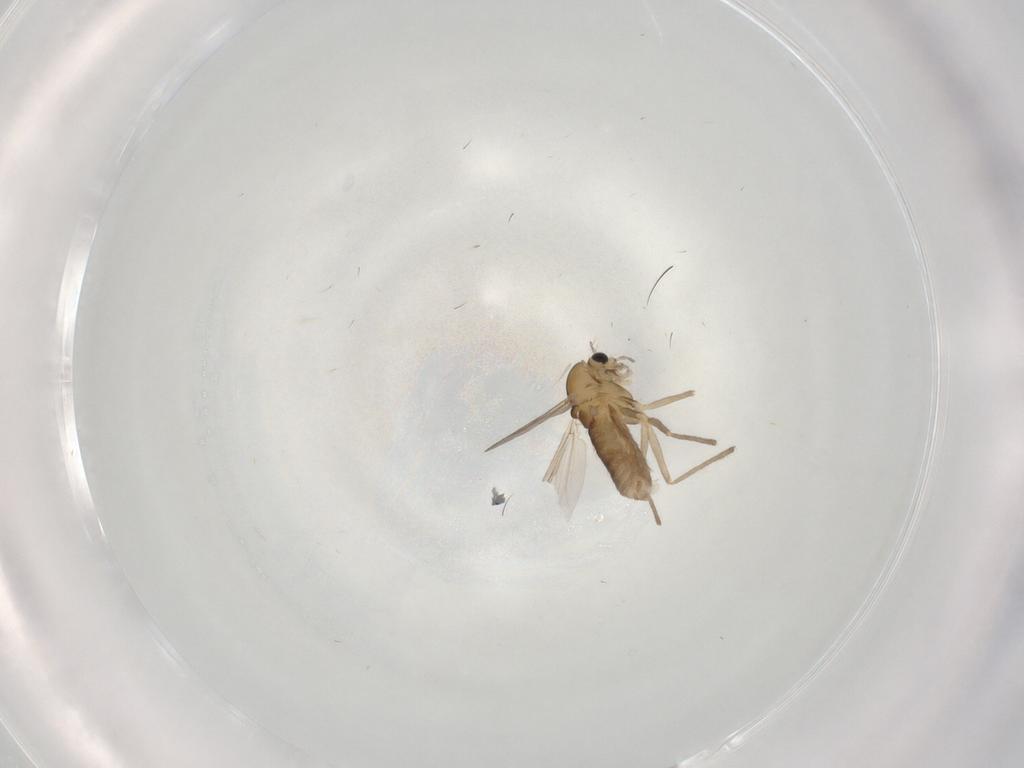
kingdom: Animalia
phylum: Arthropoda
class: Insecta
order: Diptera
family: Chironomidae
